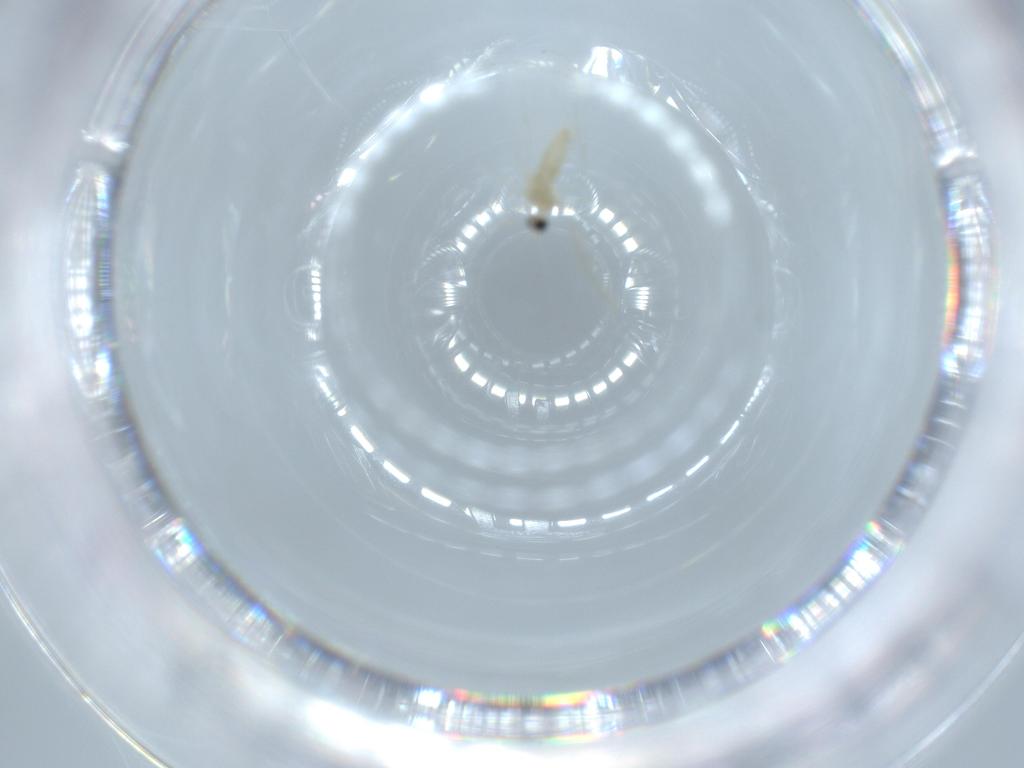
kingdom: Animalia
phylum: Arthropoda
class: Insecta
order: Diptera
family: Cecidomyiidae
